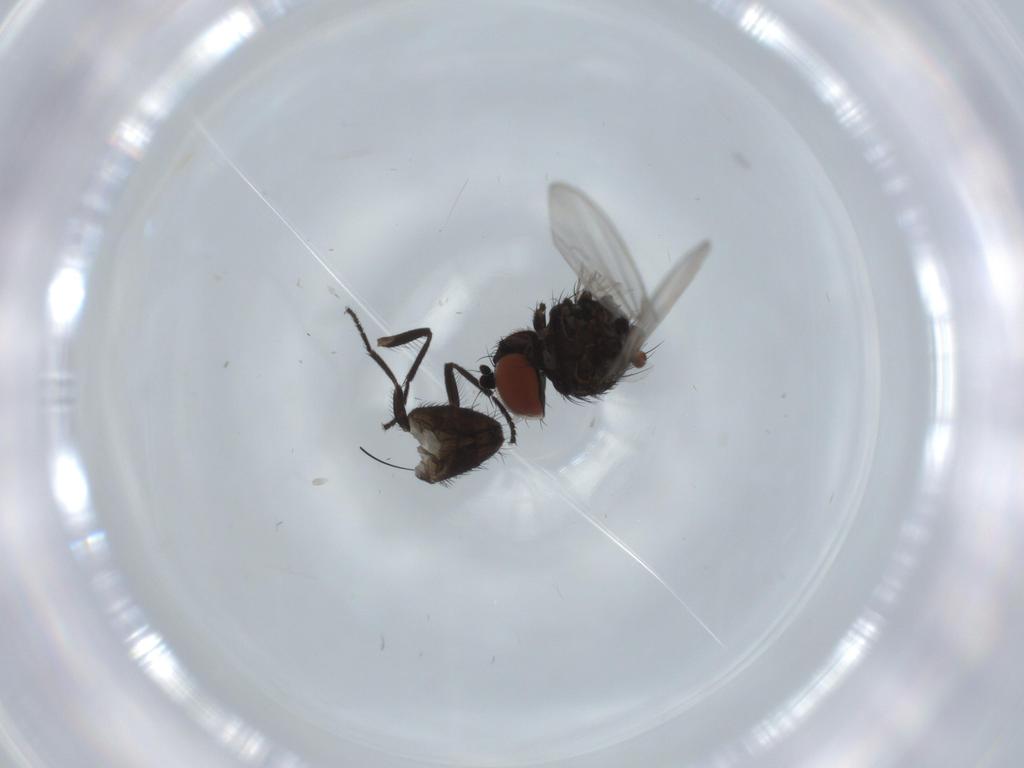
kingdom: Animalia
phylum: Arthropoda
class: Insecta
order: Diptera
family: Milichiidae
